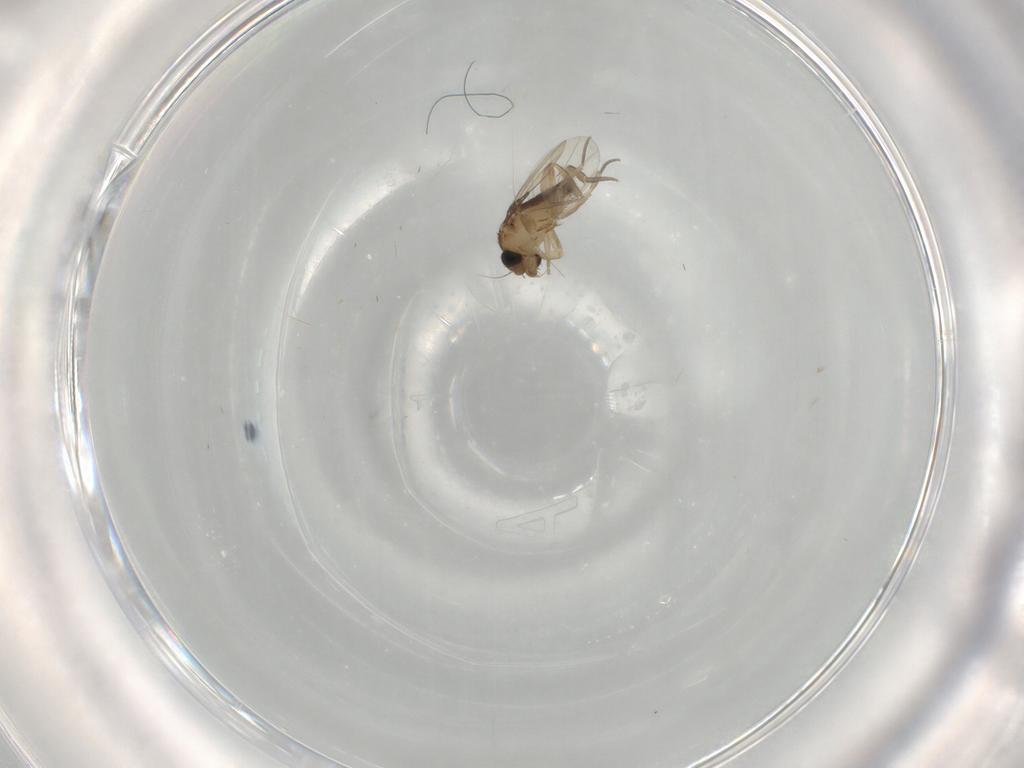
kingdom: Animalia
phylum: Arthropoda
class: Insecta
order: Diptera
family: Phoridae
